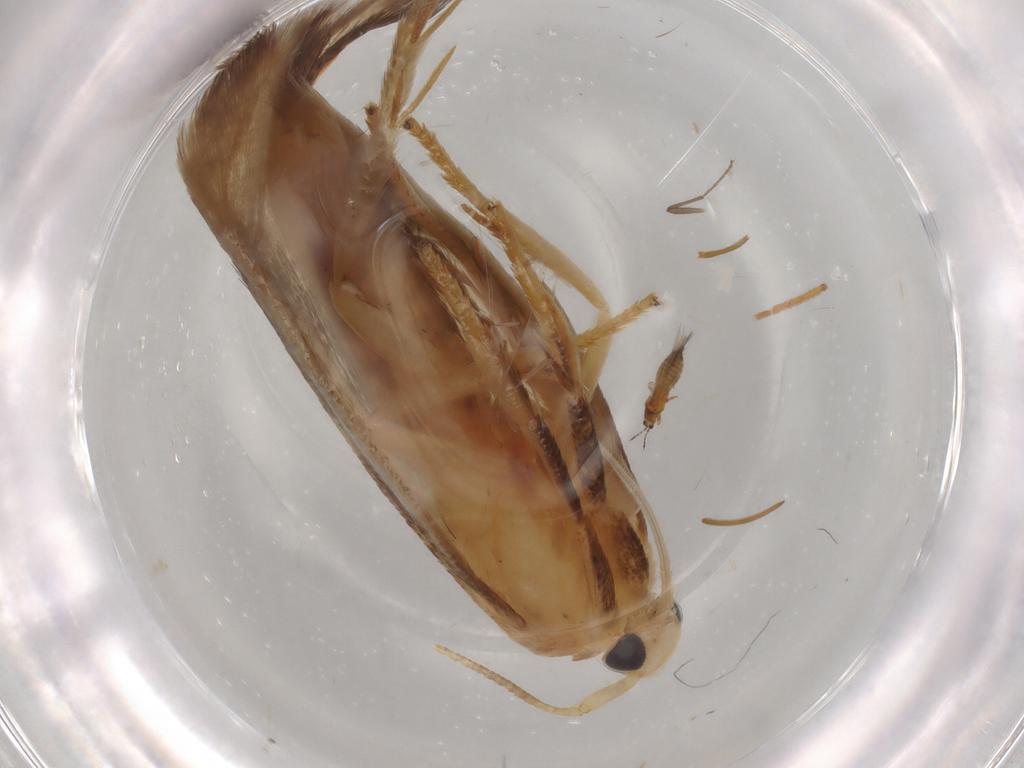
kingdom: Animalia
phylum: Arthropoda
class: Insecta
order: Lepidoptera
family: Geometridae
